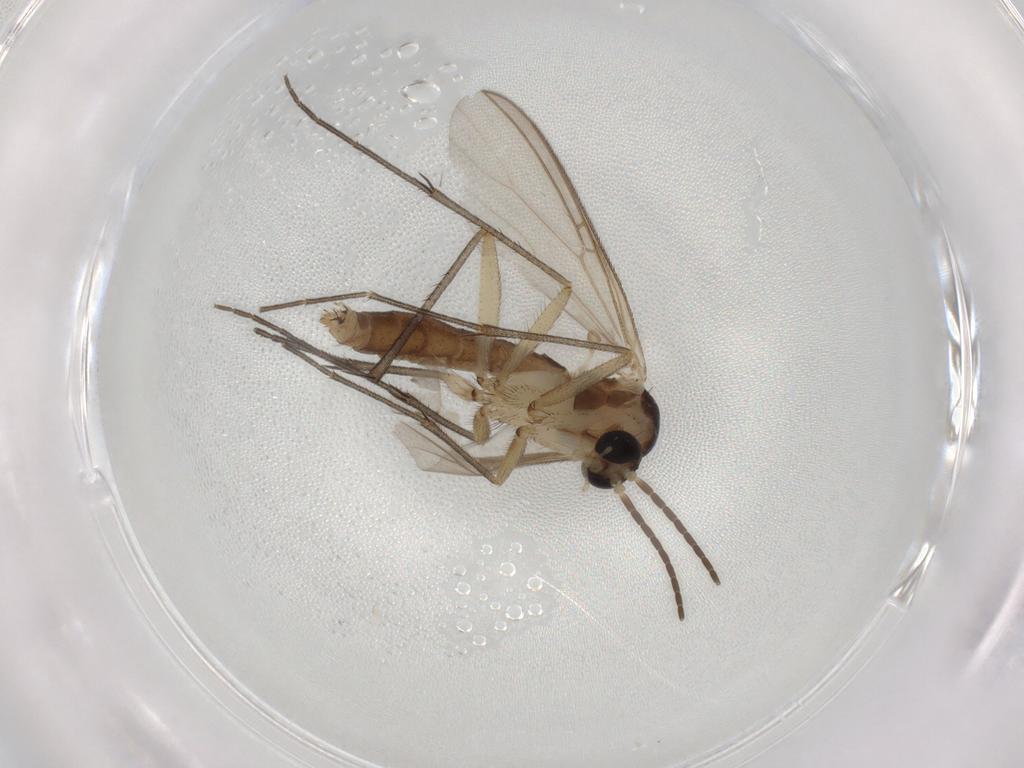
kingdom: Animalia
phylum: Arthropoda
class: Insecta
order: Diptera
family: Mycetophilidae
